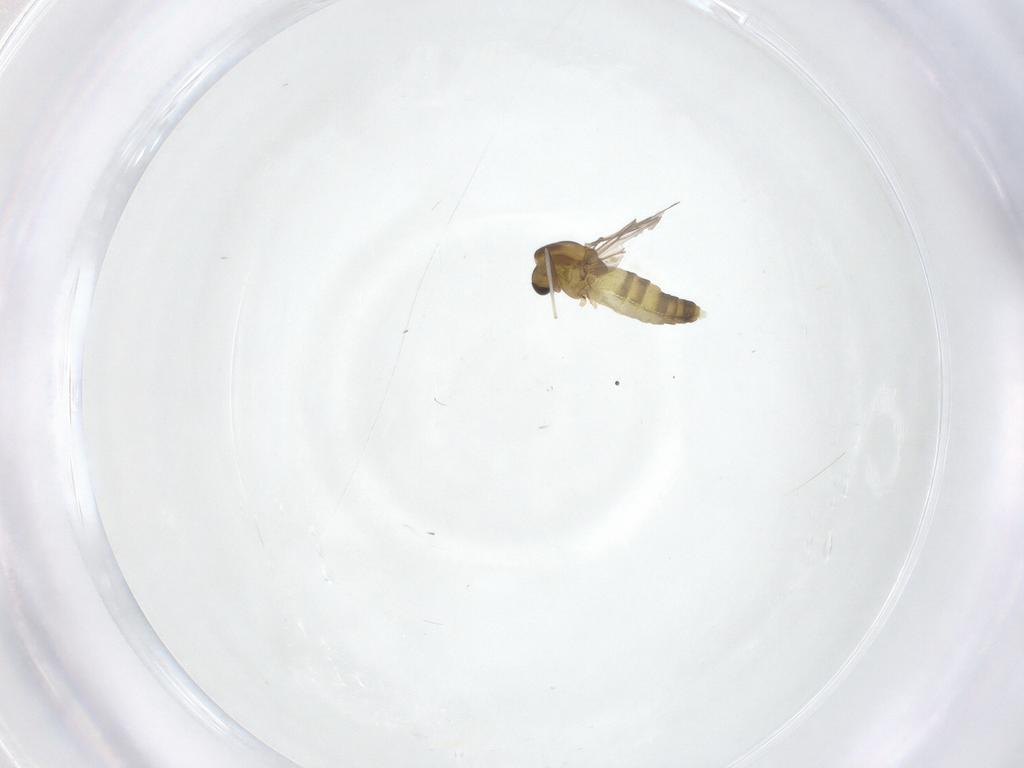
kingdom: Animalia
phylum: Arthropoda
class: Insecta
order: Diptera
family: Chironomidae
